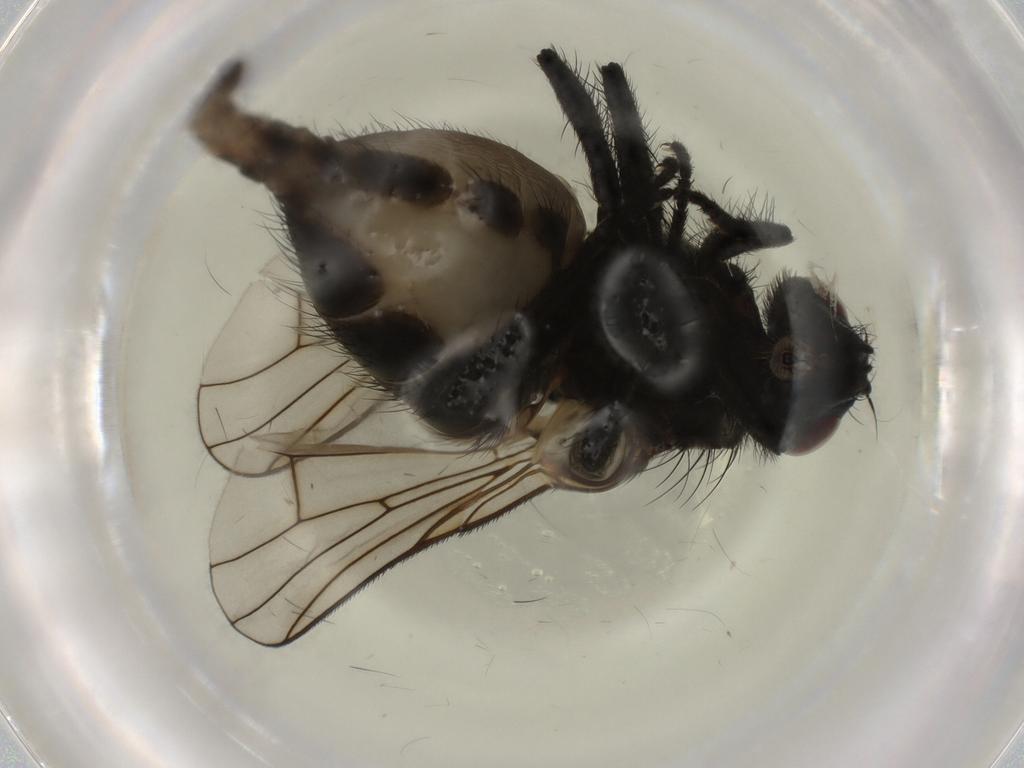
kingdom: Animalia
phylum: Arthropoda
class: Insecta
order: Diptera
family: Muscidae
